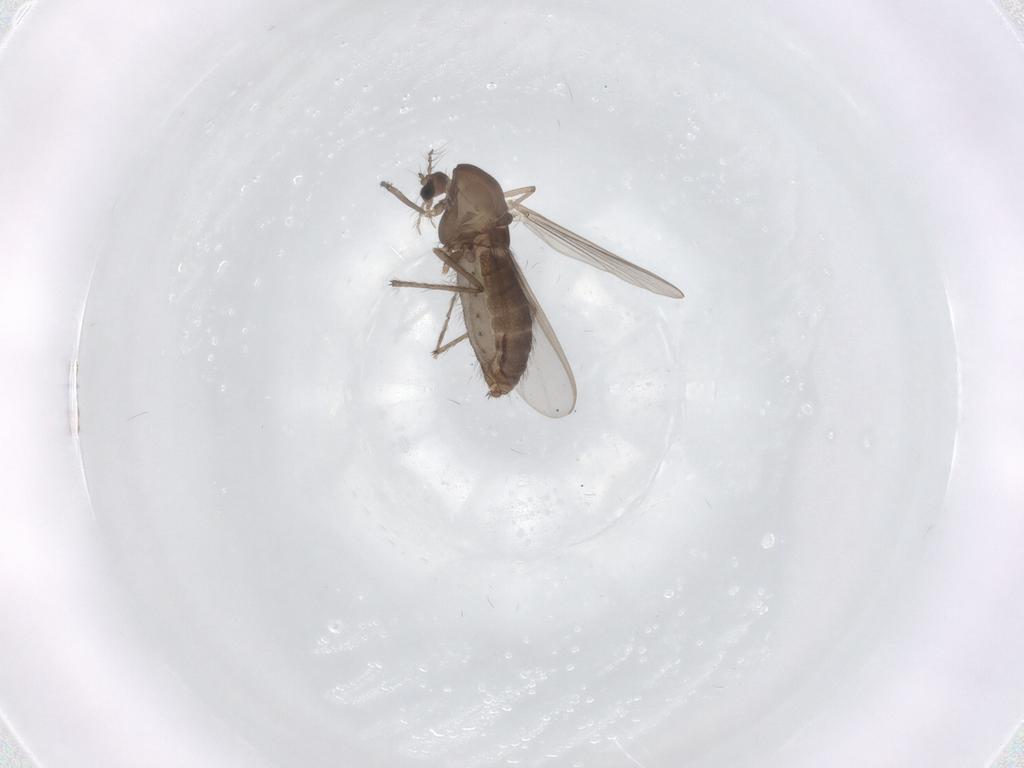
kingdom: Animalia
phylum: Arthropoda
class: Insecta
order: Diptera
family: Chironomidae
